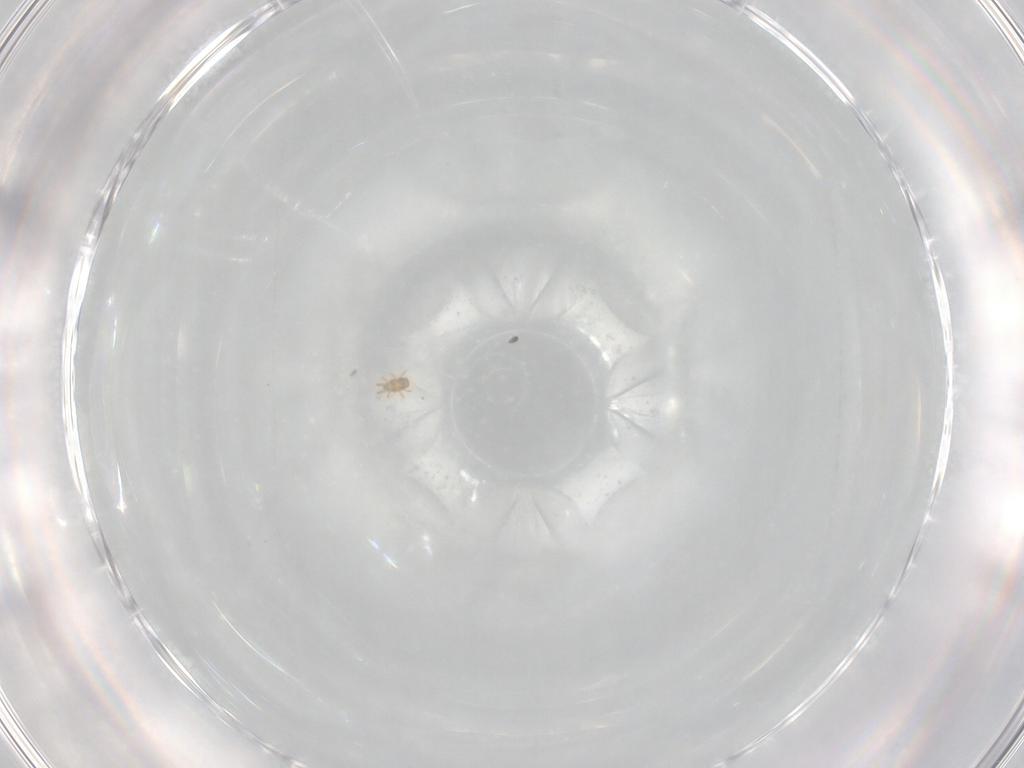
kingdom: Animalia
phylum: Arthropoda
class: Arachnida
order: Trombidiformes
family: Pygmephoridae
